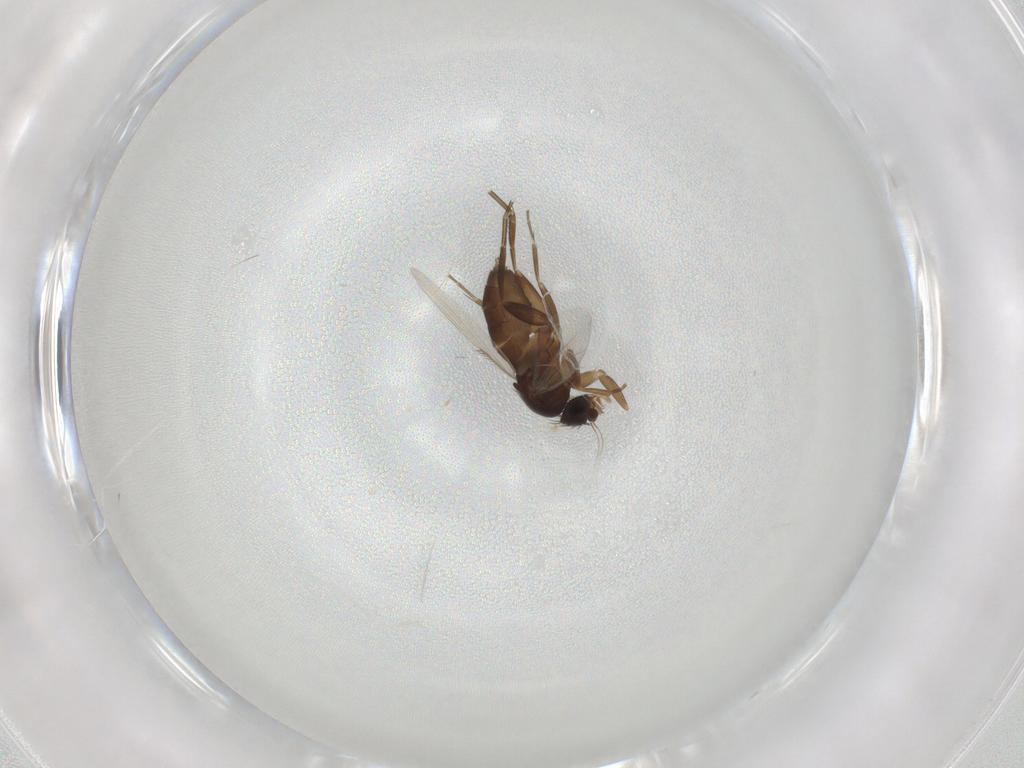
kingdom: Animalia
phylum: Arthropoda
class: Insecta
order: Diptera
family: Phoridae
